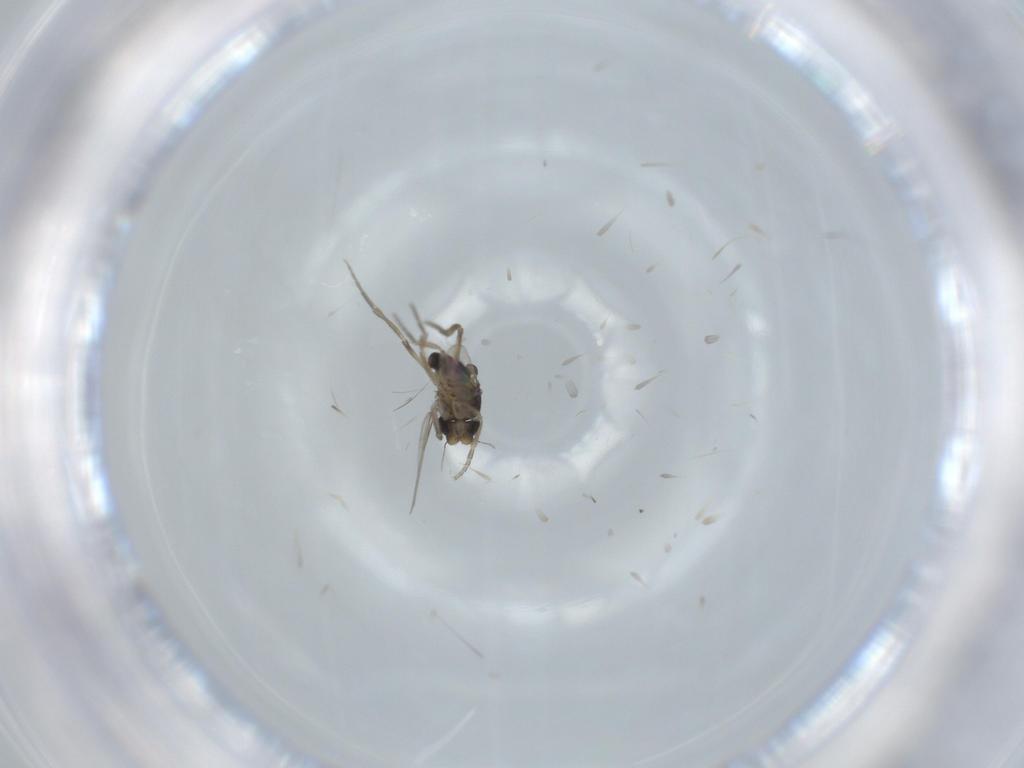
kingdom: Animalia
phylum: Arthropoda
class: Insecta
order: Diptera
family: Phoridae
